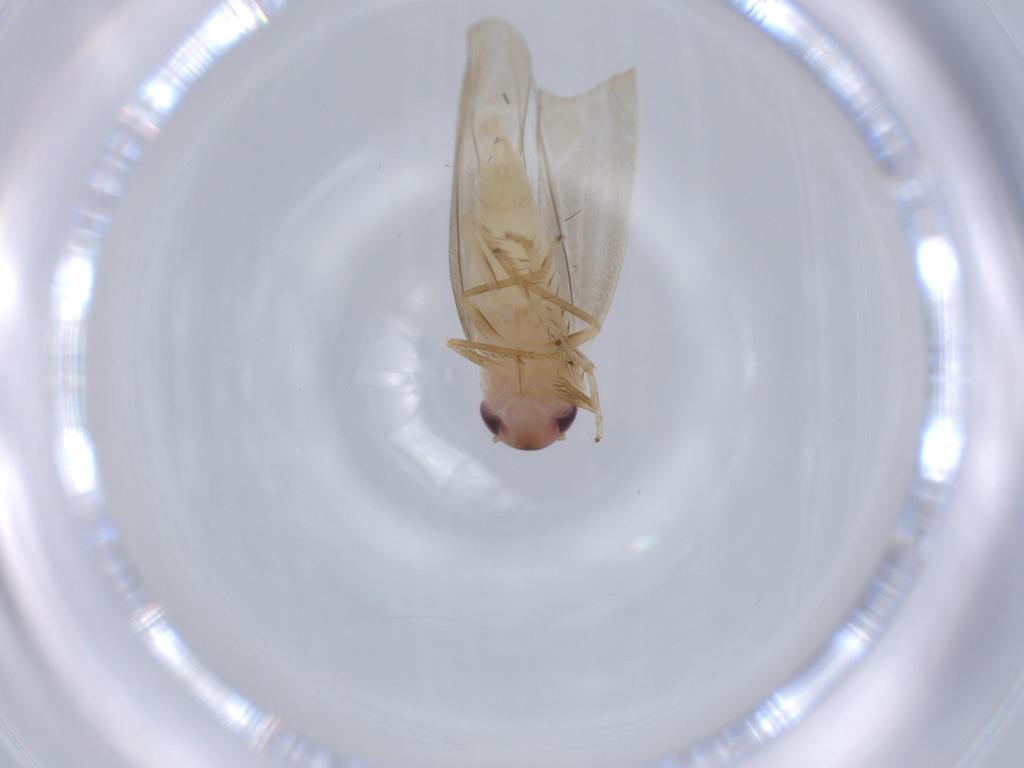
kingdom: Animalia
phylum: Arthropoda
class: Insecta
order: Hemiptera
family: Cicadellidae
